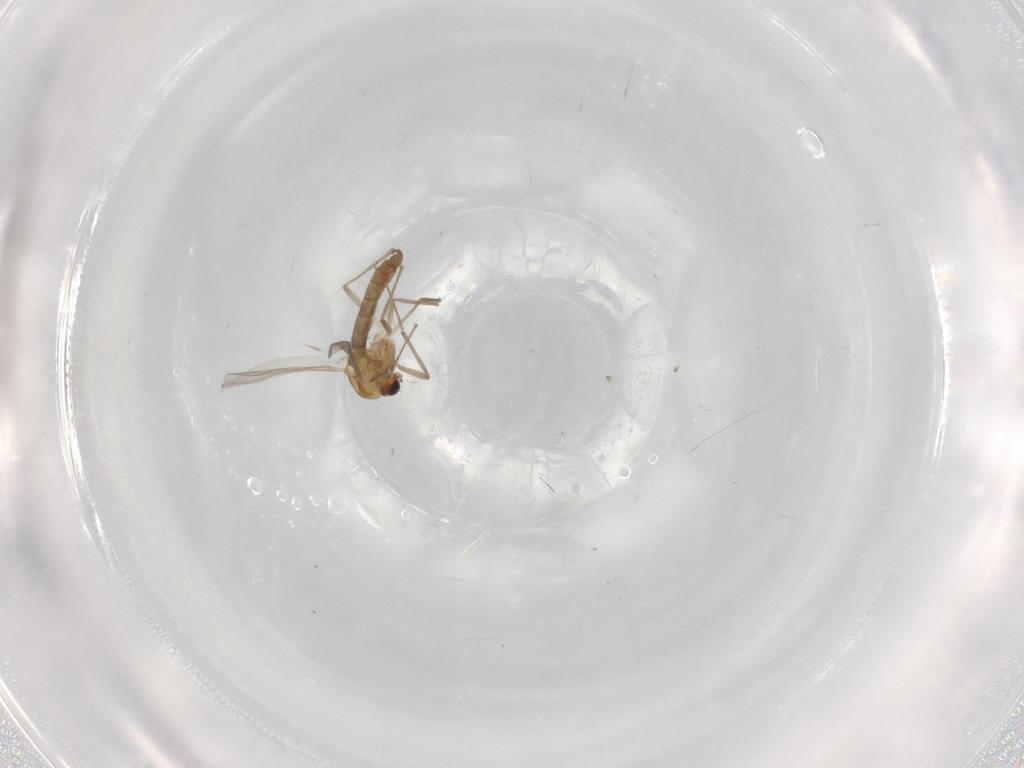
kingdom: Animalia
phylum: Arthropoda
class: Insecta
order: Diptera
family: Chironomidae
